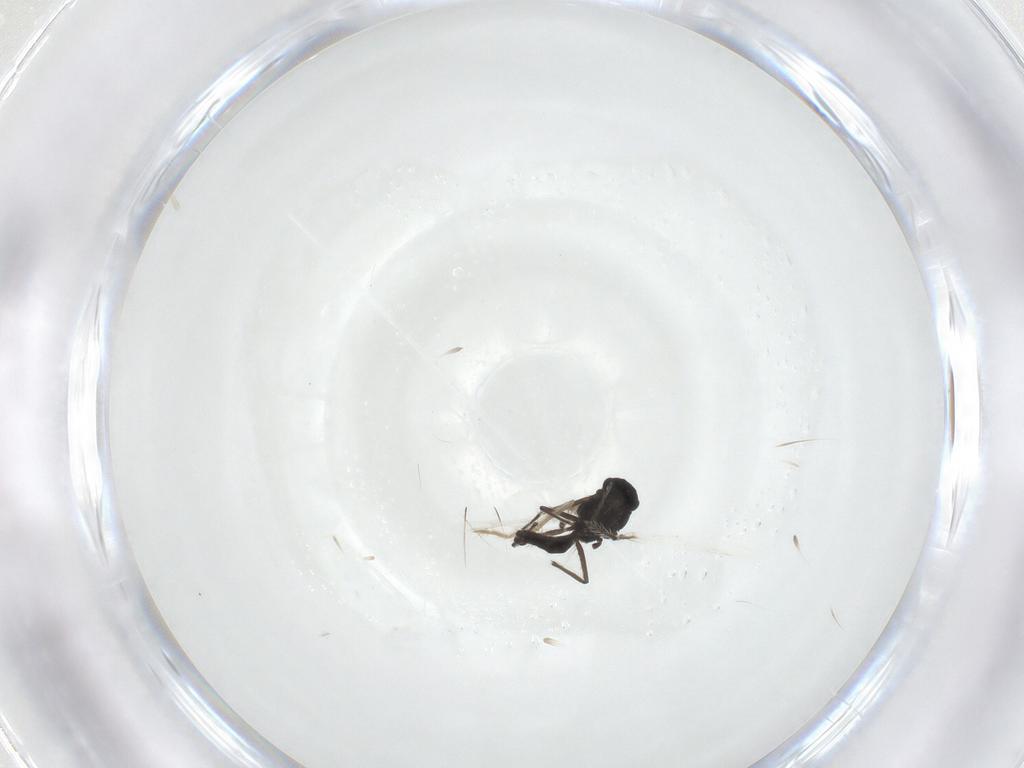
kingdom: Animalia
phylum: Arthropoda
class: Insecta
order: Diptera
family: Chironomidae
